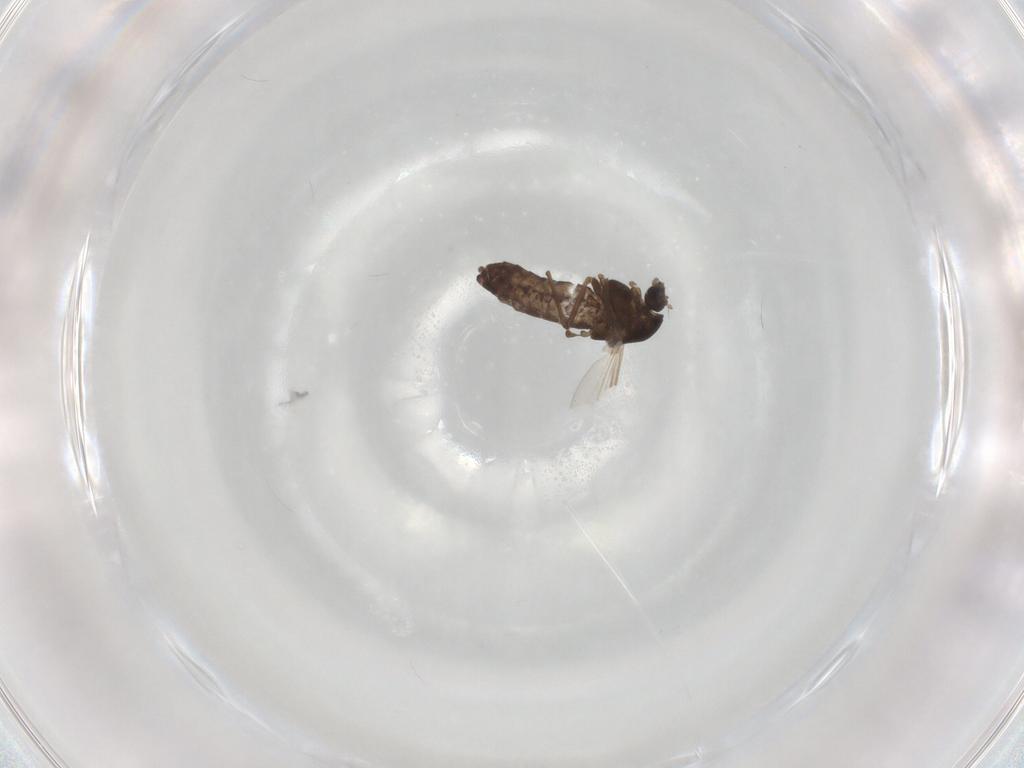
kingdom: Animalia
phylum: Arthropoda
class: Insecta
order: Diptera
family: Chironomidae
